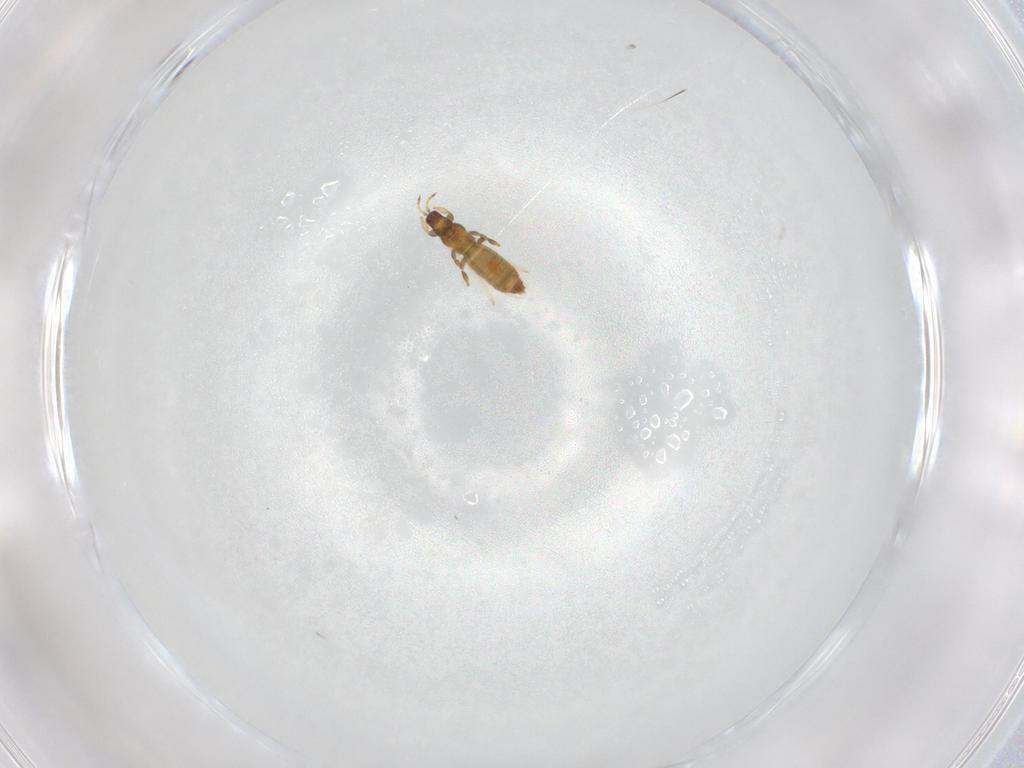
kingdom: Animalia
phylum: Arthropoda
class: Insecta
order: Thysanoptera
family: Thripidae
